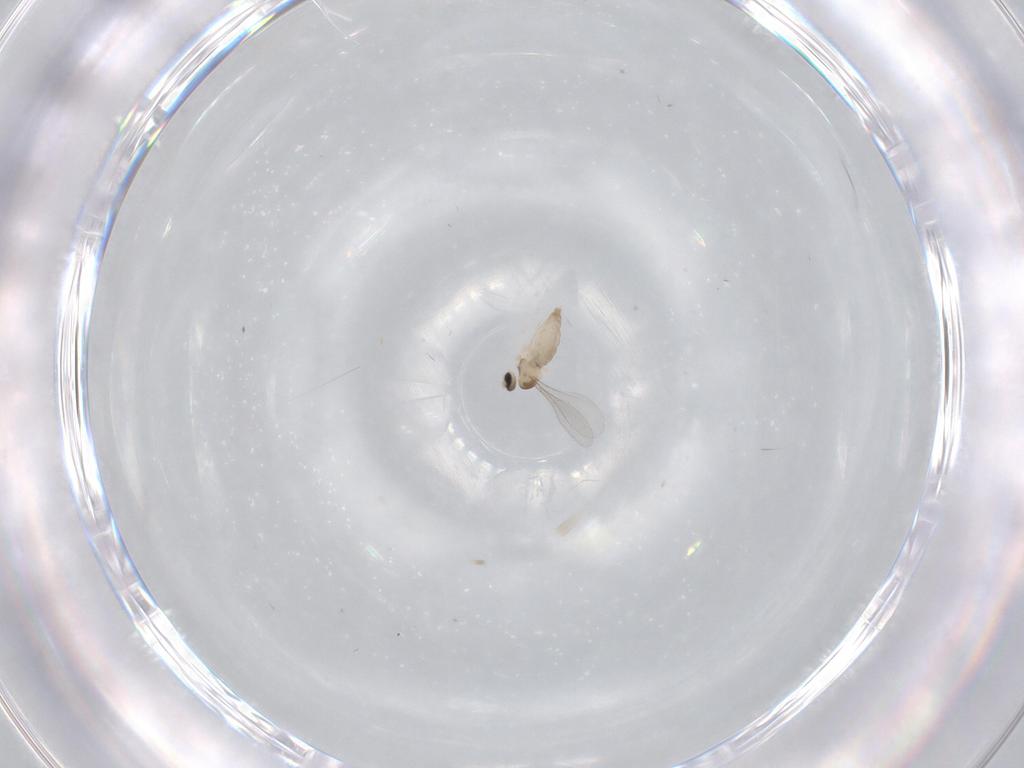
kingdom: Animalia
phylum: Arthropoda
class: Insecta
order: Diptera
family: Cecidomyiidae
